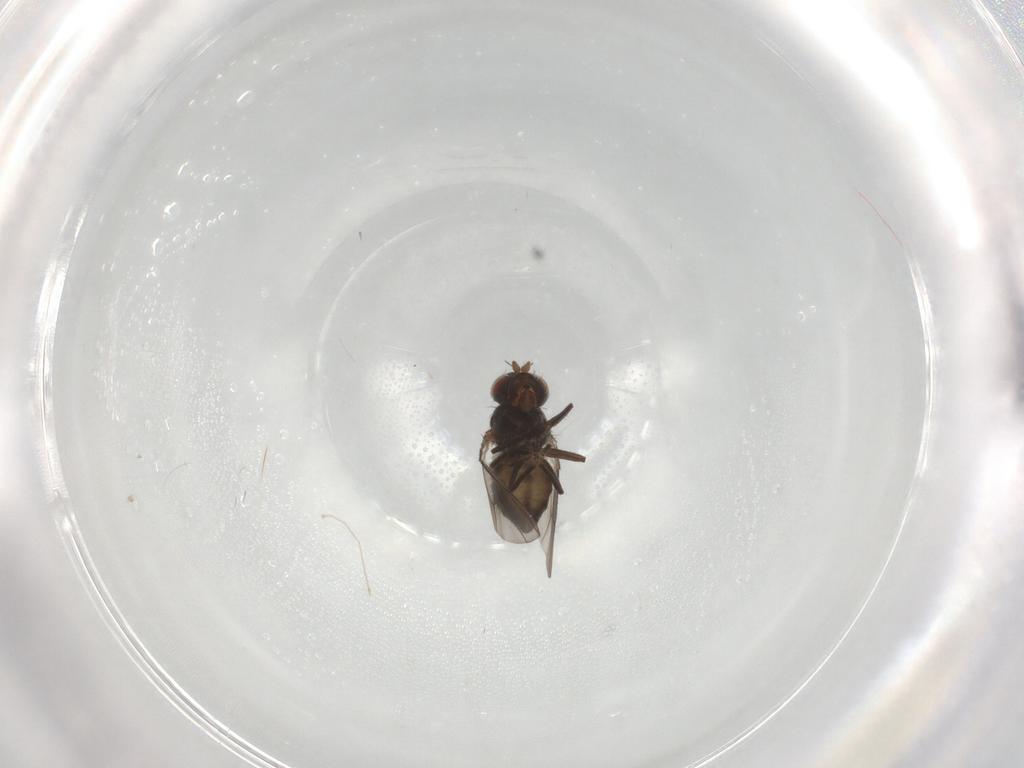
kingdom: Animalia
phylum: Arthropoda
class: Insecta
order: Diptera
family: Ephydridae
